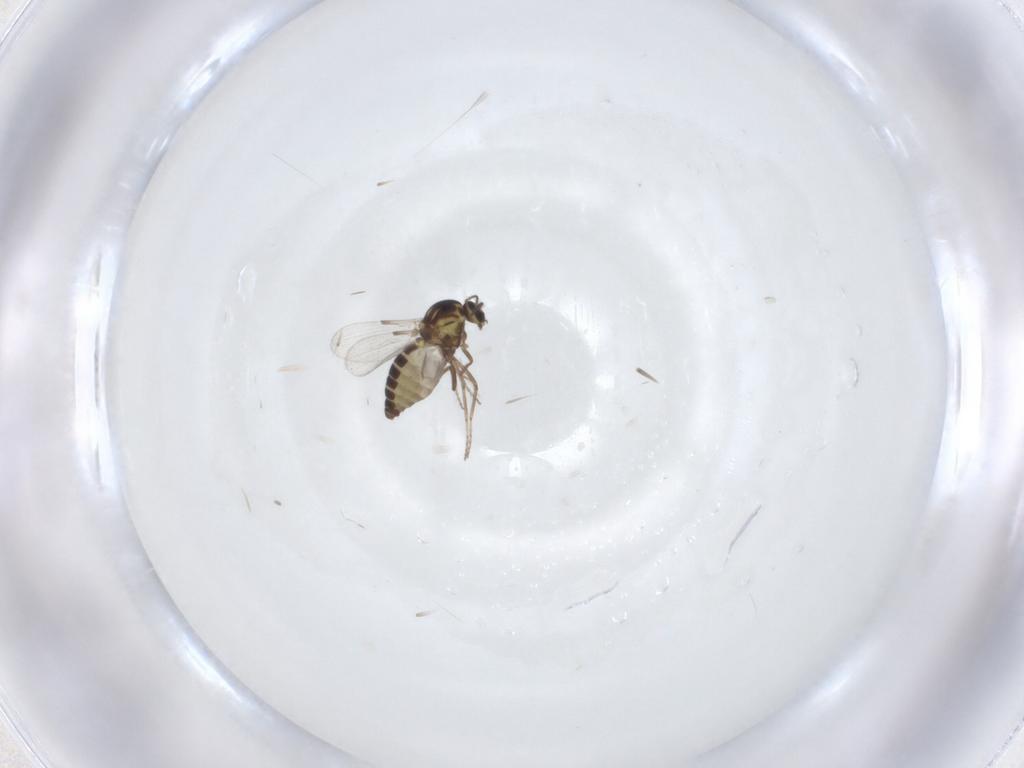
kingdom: Animalia
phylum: Arthropoda
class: Insecta
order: Diptera
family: Ceratopogonidae
